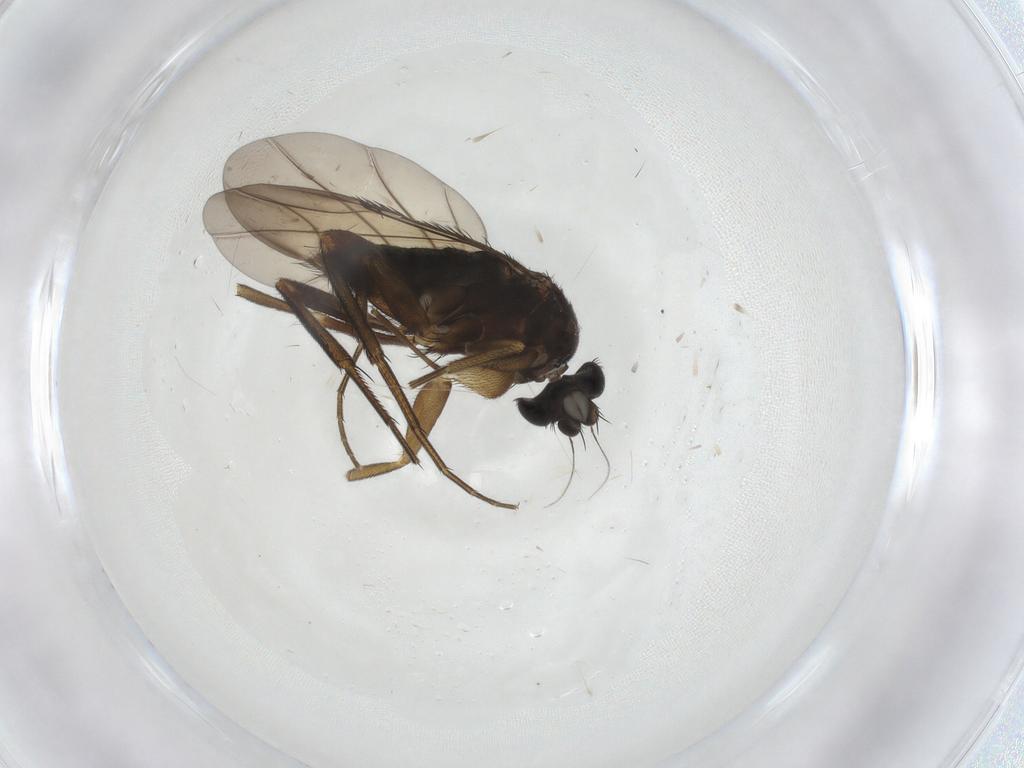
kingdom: Animalia
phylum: Arthropoda
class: Insecta
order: Diptera
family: Phoridae
